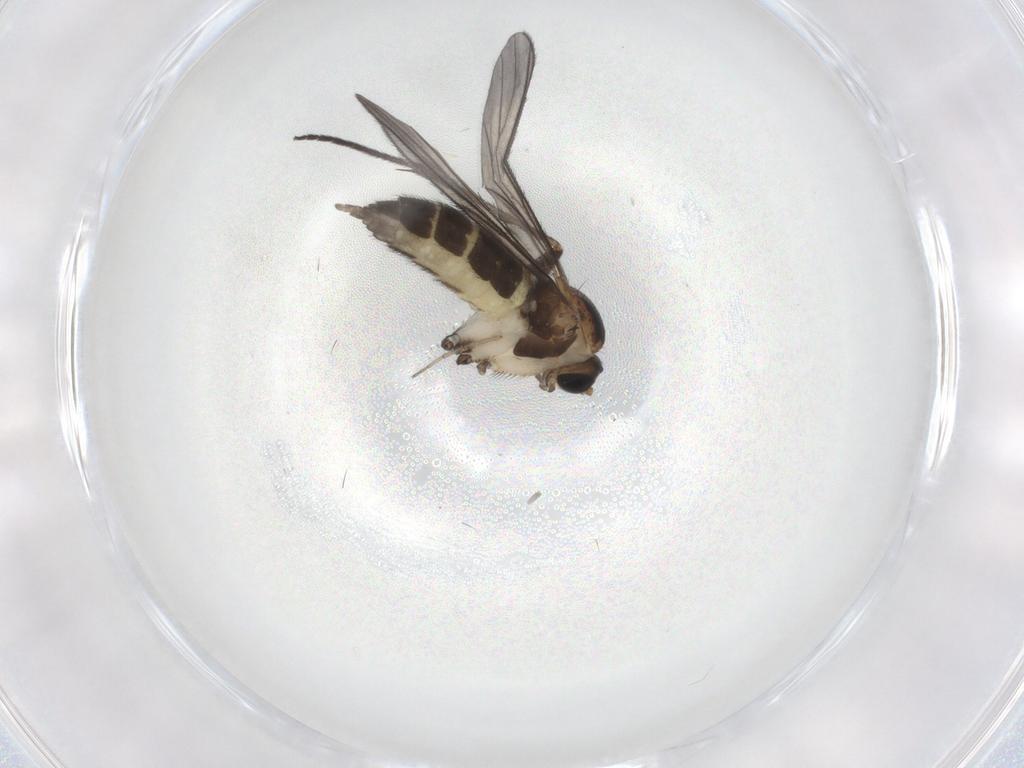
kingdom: Animalia
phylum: Arthropoda
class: Insecta
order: Diptera
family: Sciaridae
